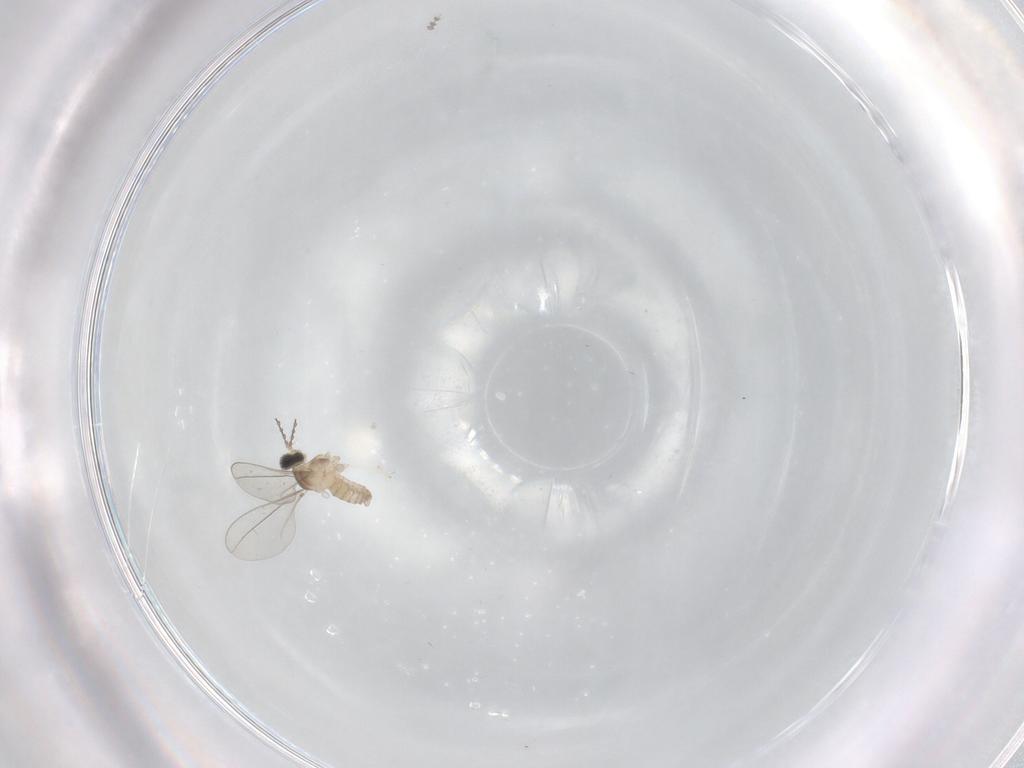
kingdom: Animalia
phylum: Arthropoda
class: Insecta
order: Diptera
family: Cecidomyiidae
